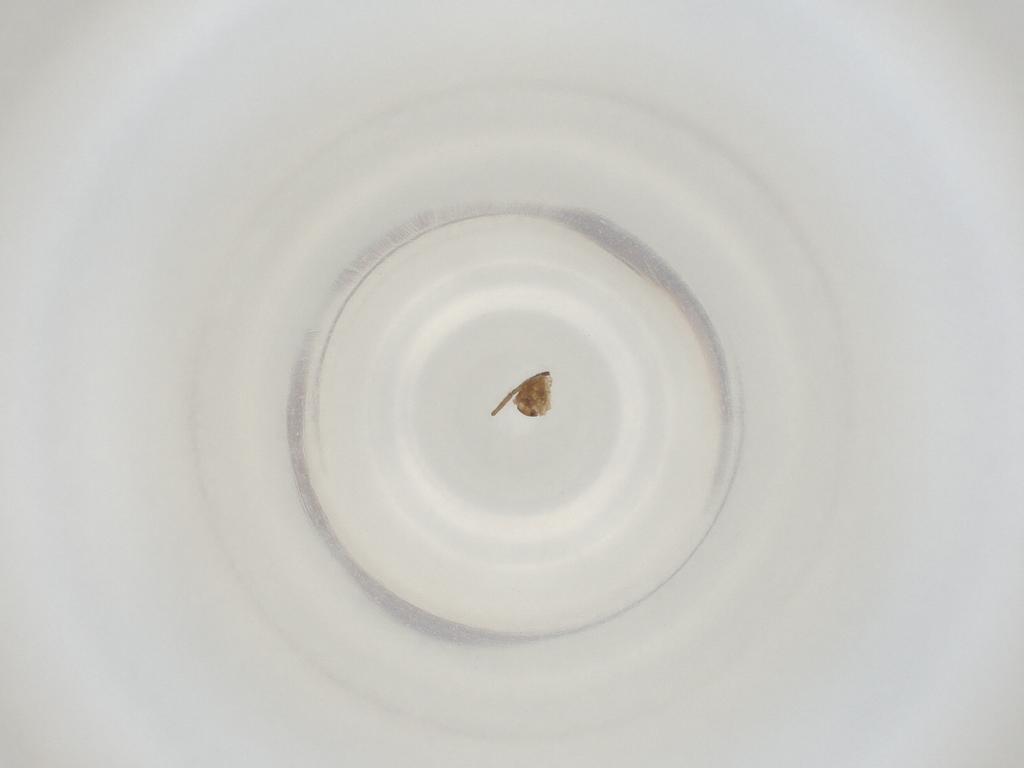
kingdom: Animalia
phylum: Arthropoda
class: Insecta
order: Diptera
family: Cecidomyiidae
